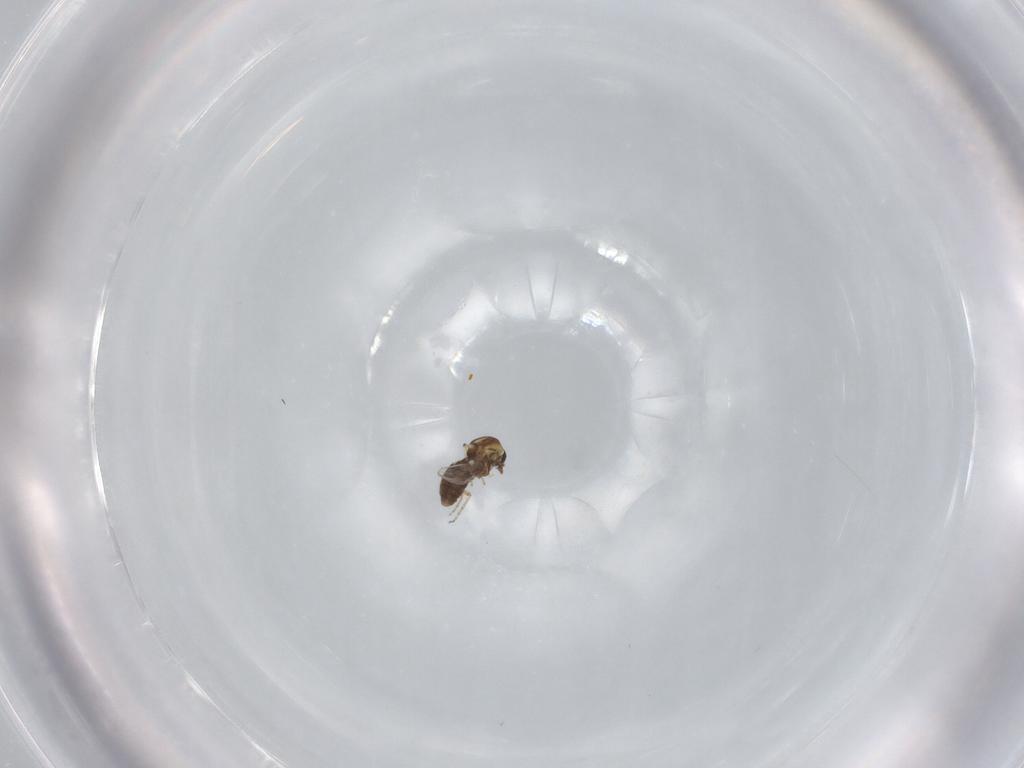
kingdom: Animalia
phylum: Arthropoda
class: Insecta
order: Diptera
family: Ceratopogonidae
